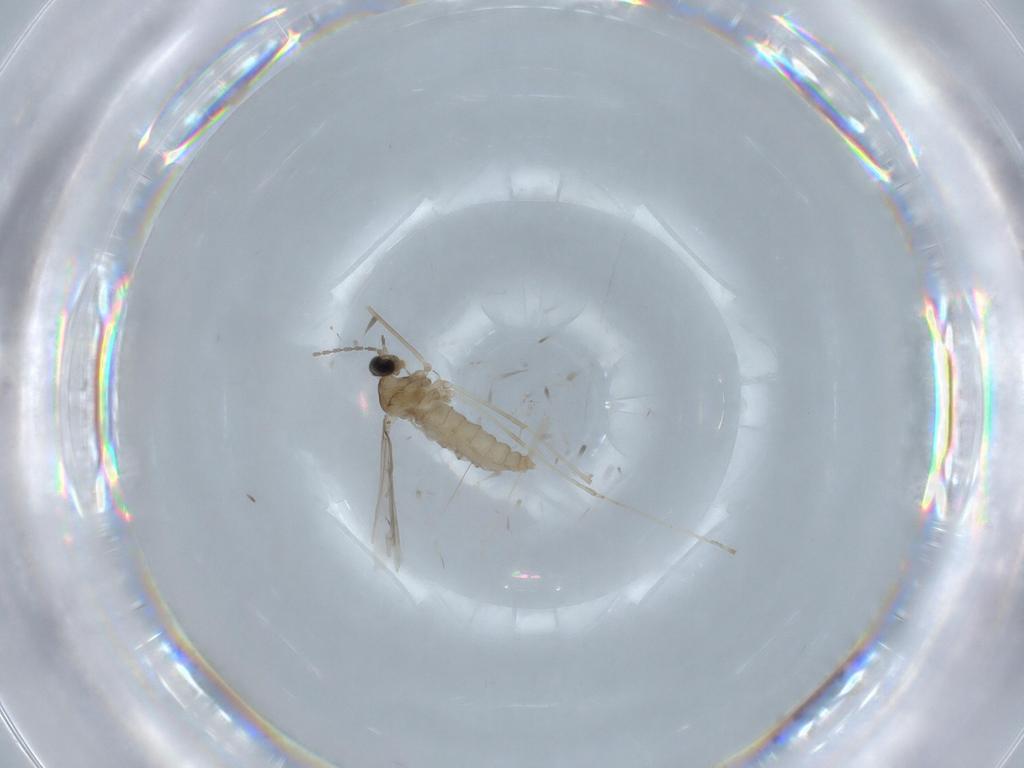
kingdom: Animalia
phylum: Arthropoda
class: Insecta
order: Diptera
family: Cecidomyiidae
